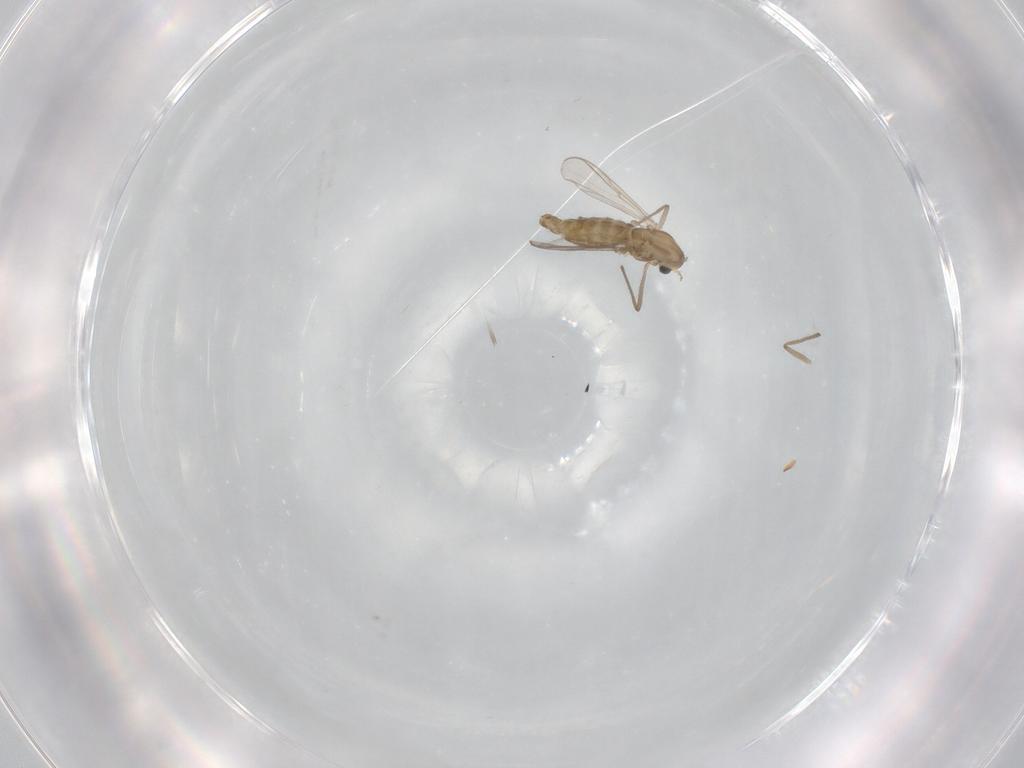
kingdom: Animalia
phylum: Arthropoda
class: Insecta
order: Diptera
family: Chironomidae
